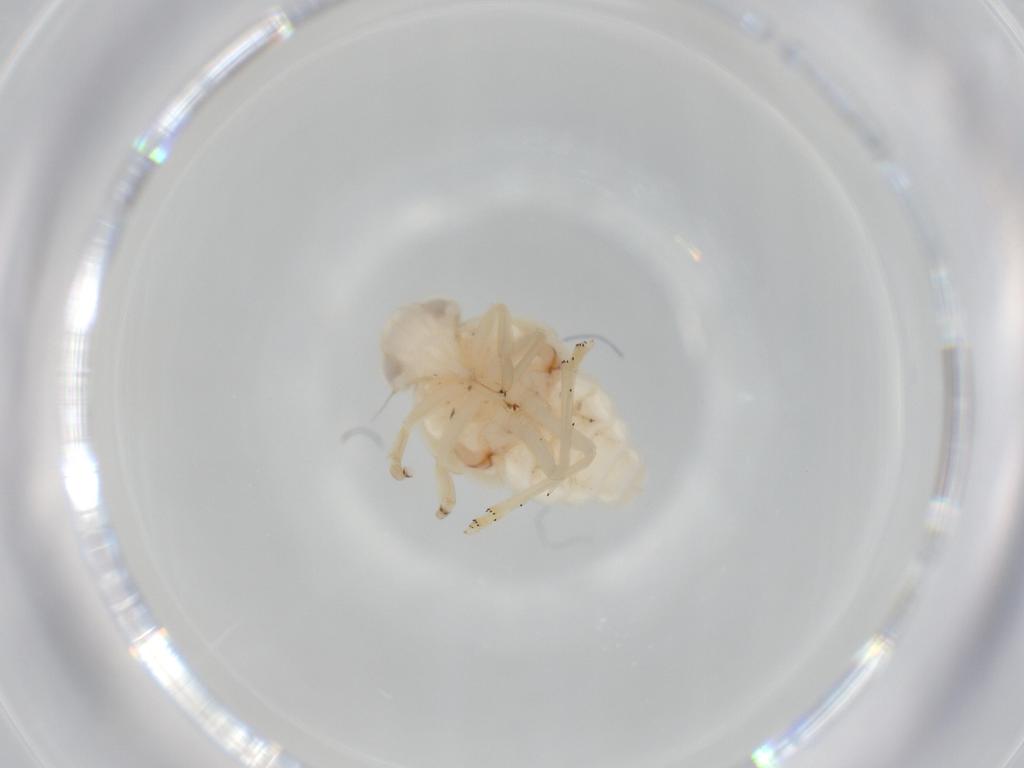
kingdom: Animalia
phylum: Arthropoda
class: Insecta
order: Hemiptera
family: Nogodinidae
